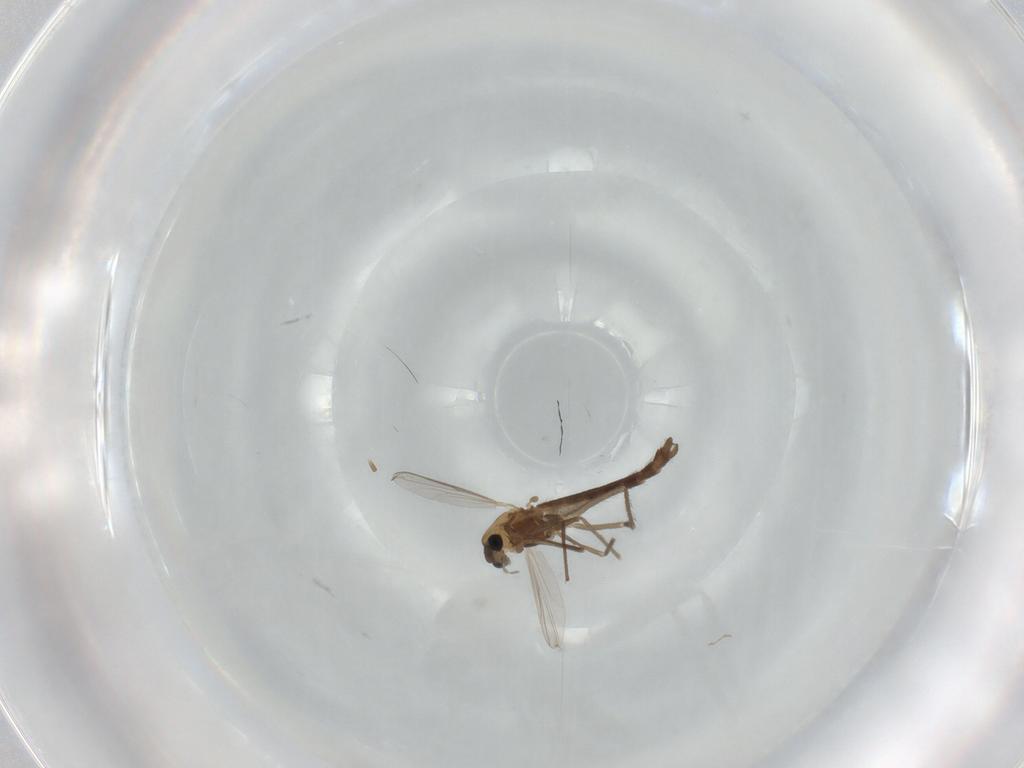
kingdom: Animalia
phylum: Arthropoda
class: Insecta
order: Diptera
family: Chironomidae
